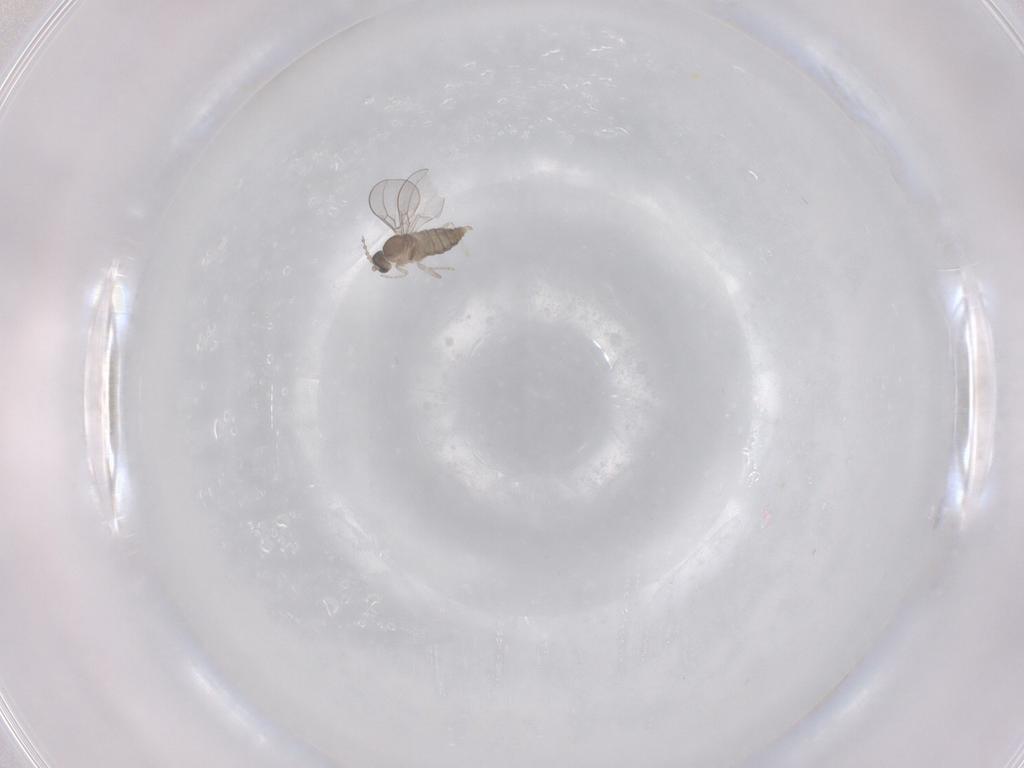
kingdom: Animalia
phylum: Arthropoda
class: Insecta
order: Diptera
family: Cecidomyiidae
